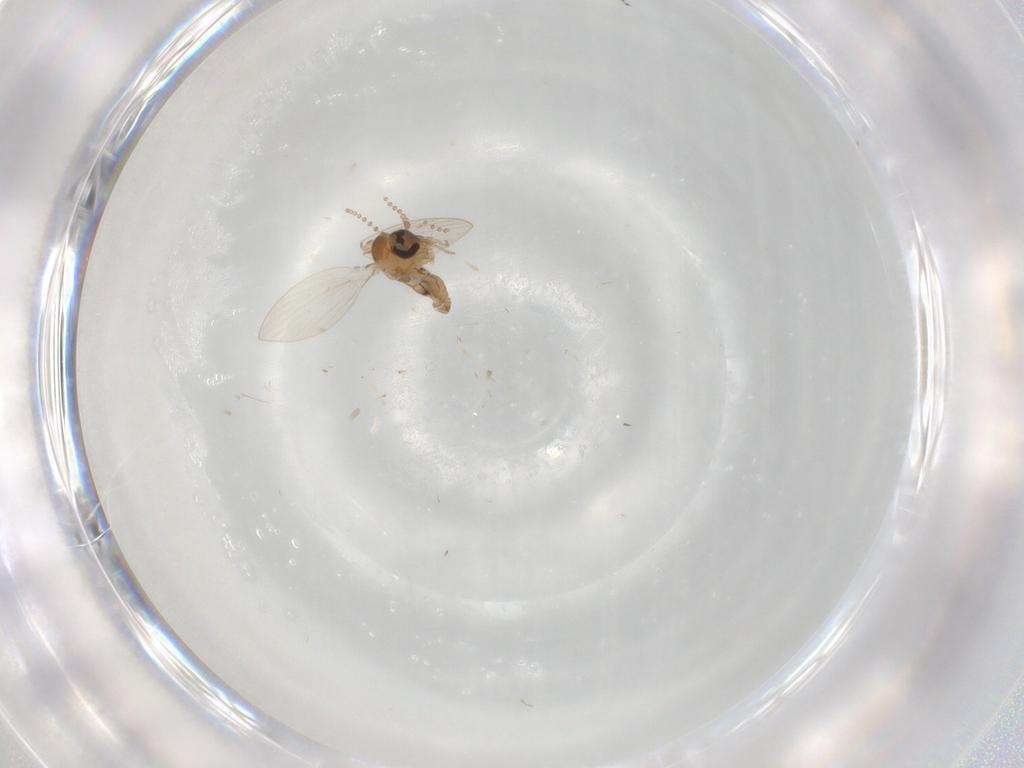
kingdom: Animalia
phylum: Arthropoda
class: Insecta
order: Diptera
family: Psychodidae
